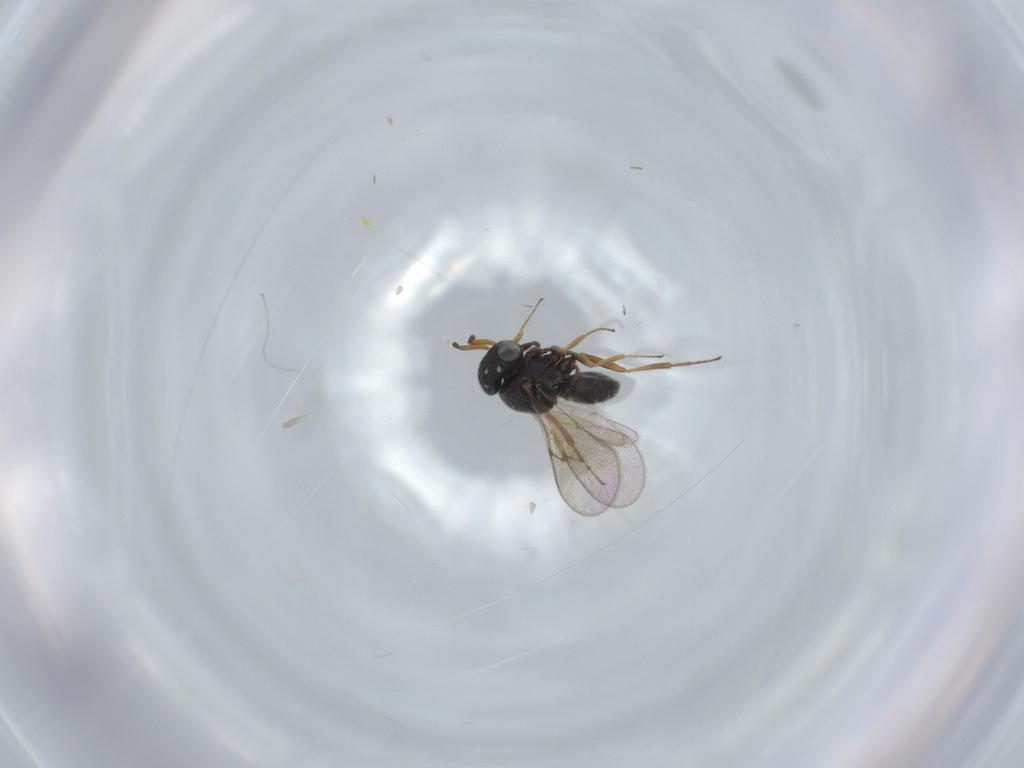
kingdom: Animalia
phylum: Arthropoda
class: Insecta
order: Hymenoptera
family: Scelionidae
